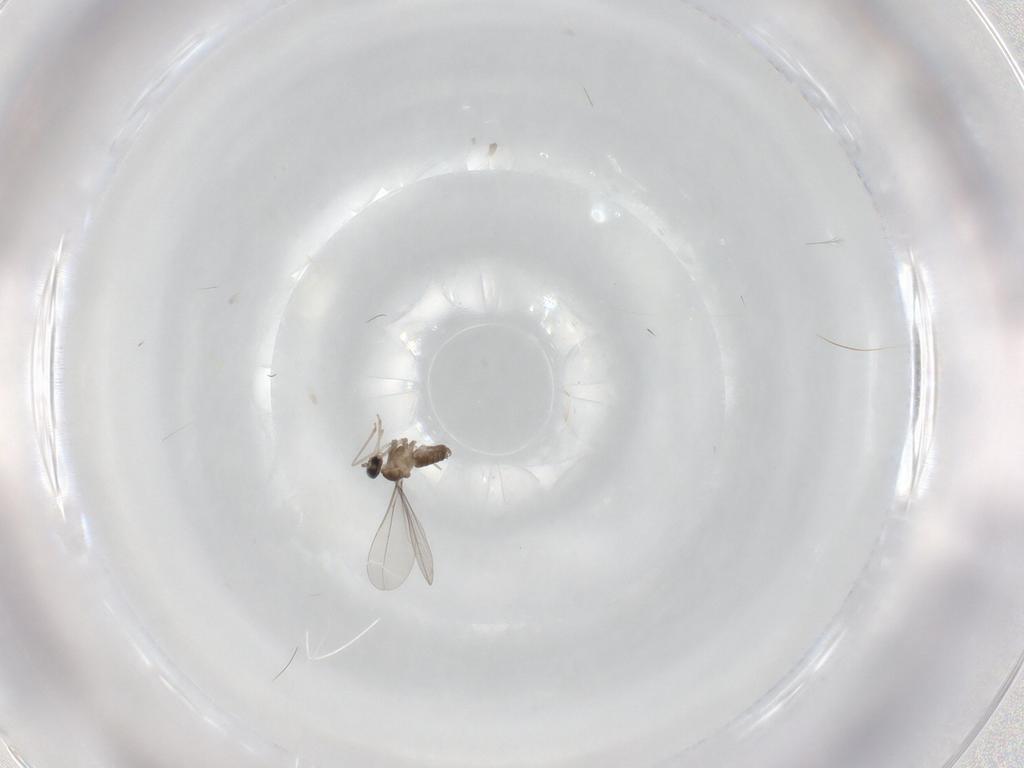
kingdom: Animalia
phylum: Arthropoda
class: Insecta
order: Diptera
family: Cecidomyiidae
